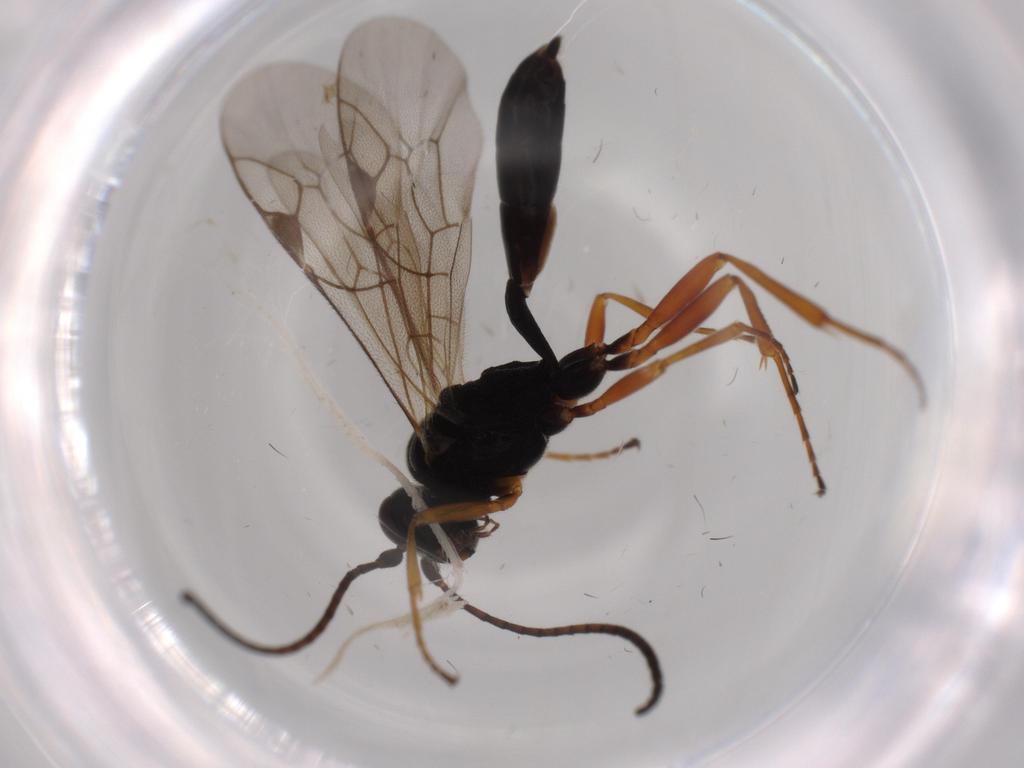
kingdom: Animalia
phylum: Arthropoda
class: Insecta
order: Hymenoptera
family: Ichneumonidae
